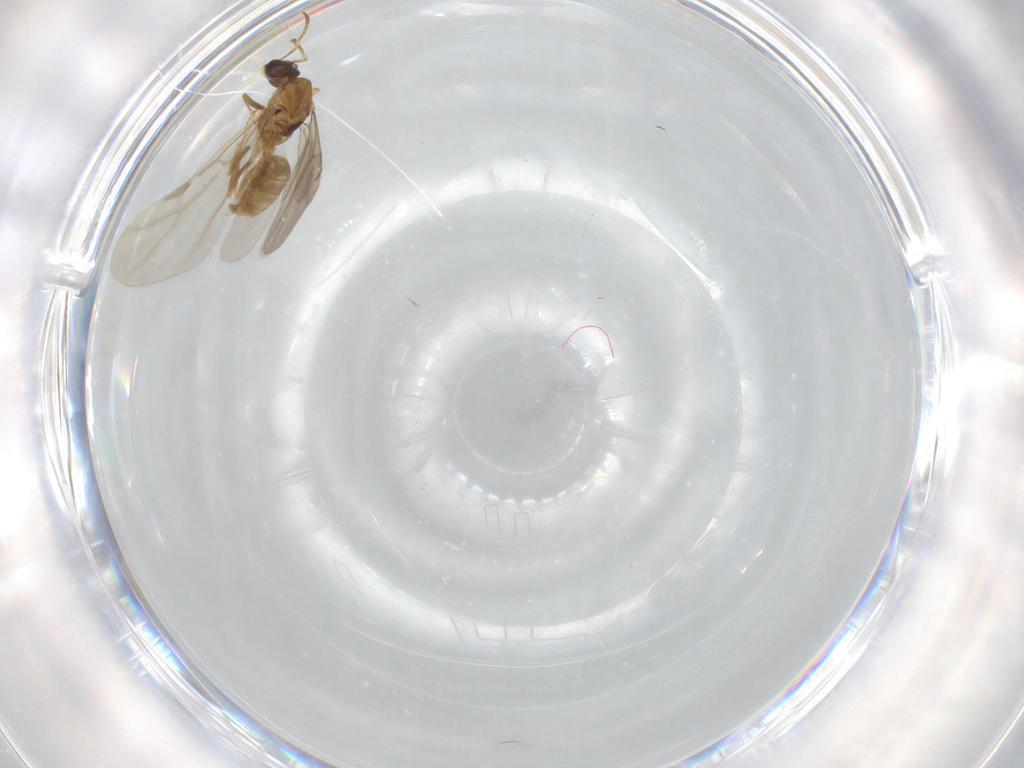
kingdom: Animalia
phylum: Arthropoda
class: Insecta
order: Hymenoptera
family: Formicidae
